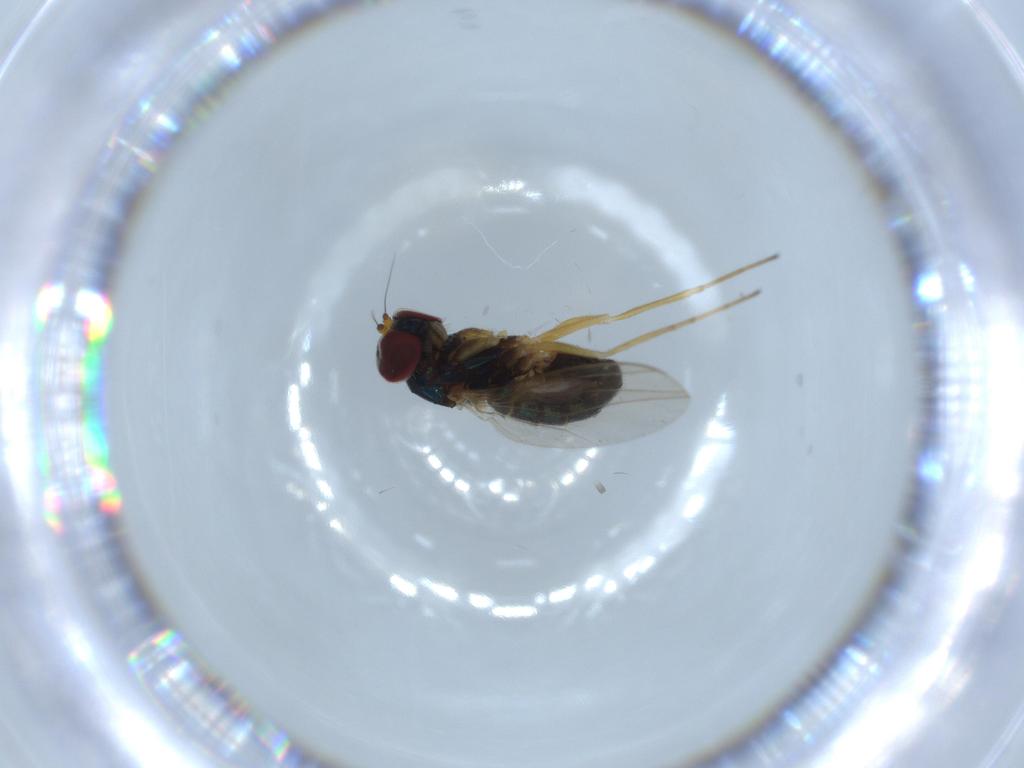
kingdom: Animalia
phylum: Arthropoda
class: Insecta
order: Diptera
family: Dolichopodidae
